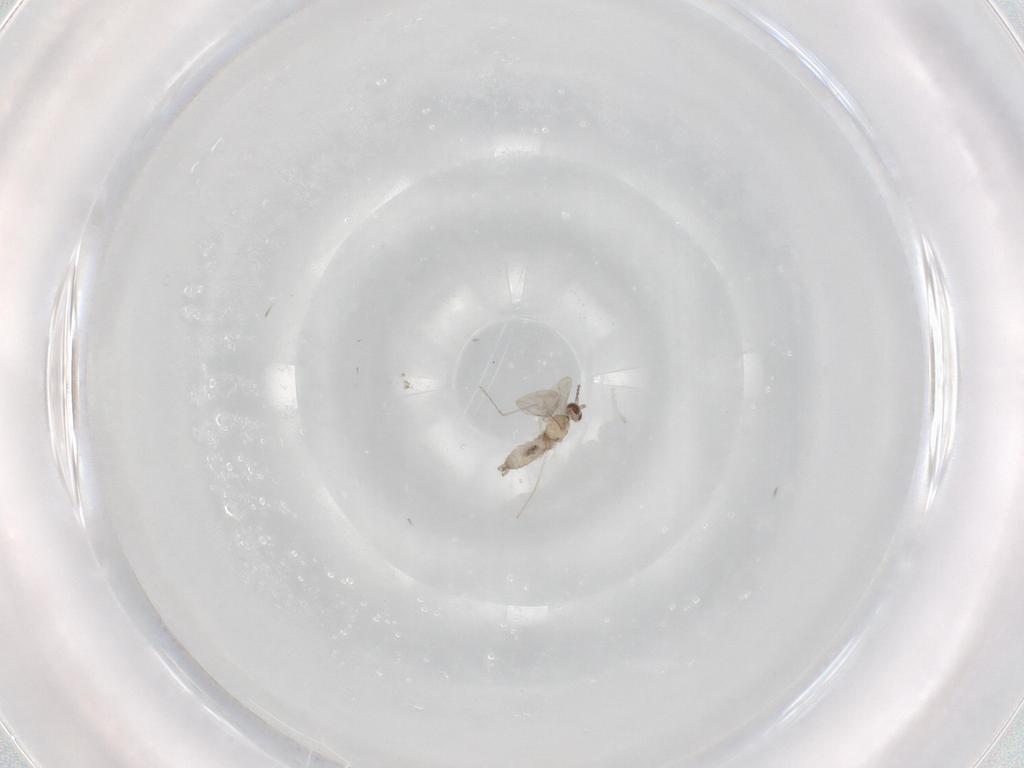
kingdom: Animalia
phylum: Arthropoda
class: Insecta
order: Diptera
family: Cecidomyiidae
